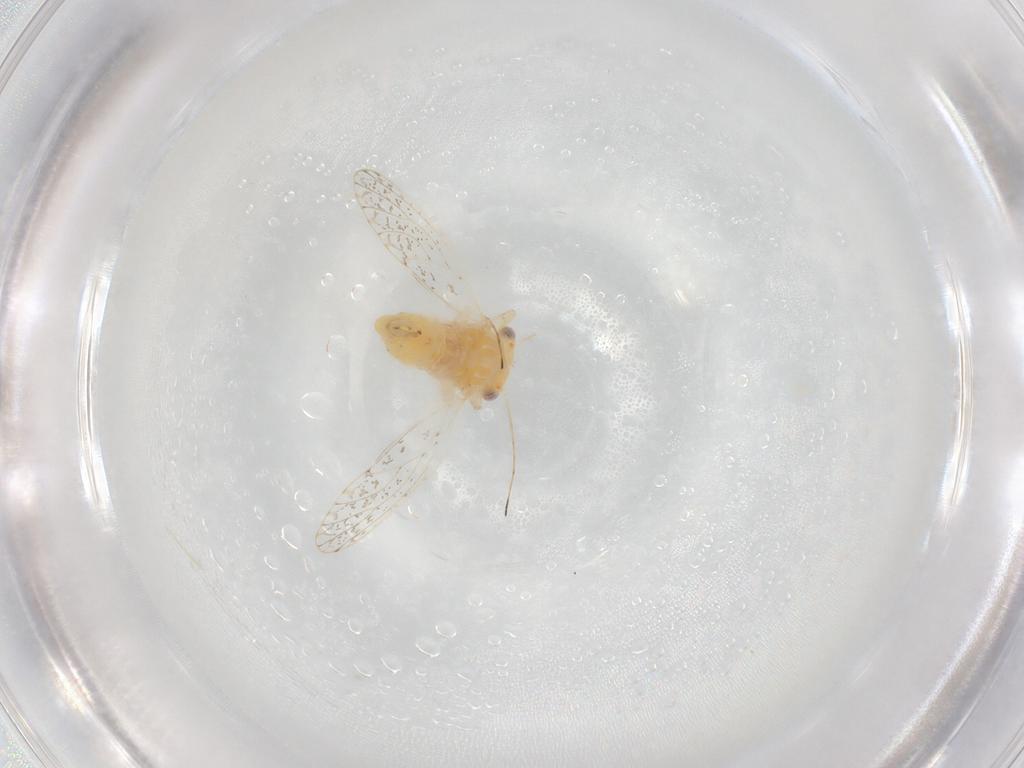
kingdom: Animalia
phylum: Arthropoda
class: Insecta
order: Hemiptera
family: Psyllidae
